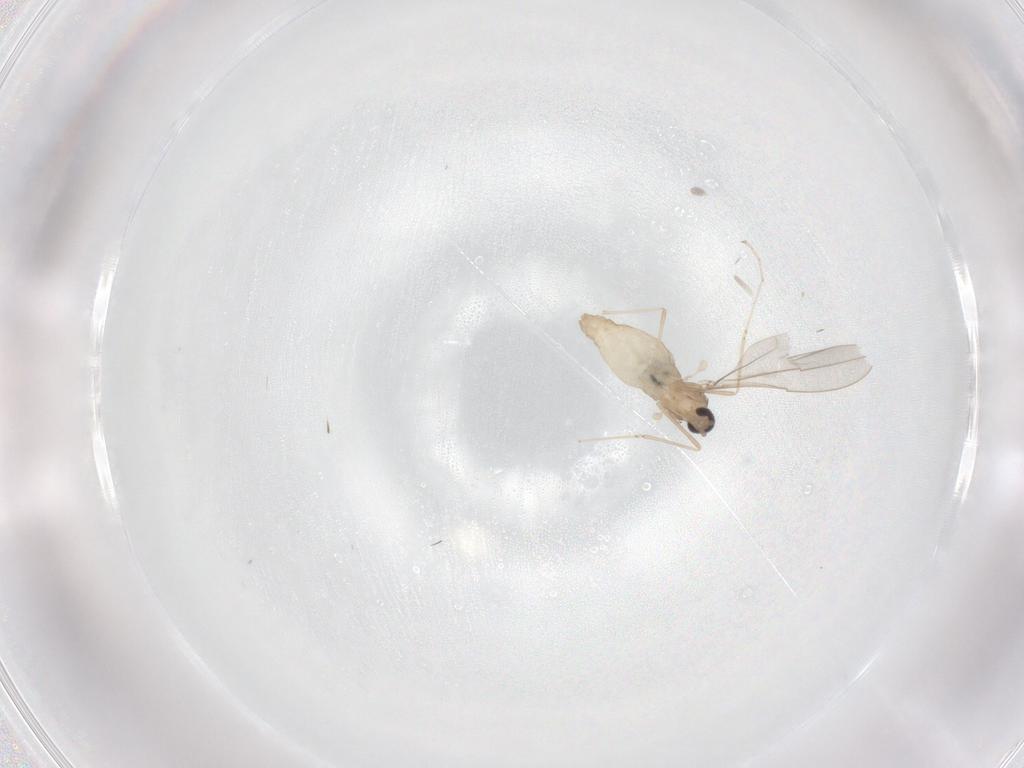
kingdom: Animalia
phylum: Arthropoda
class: Insecta
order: Diptera
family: Cecidomyiidae
